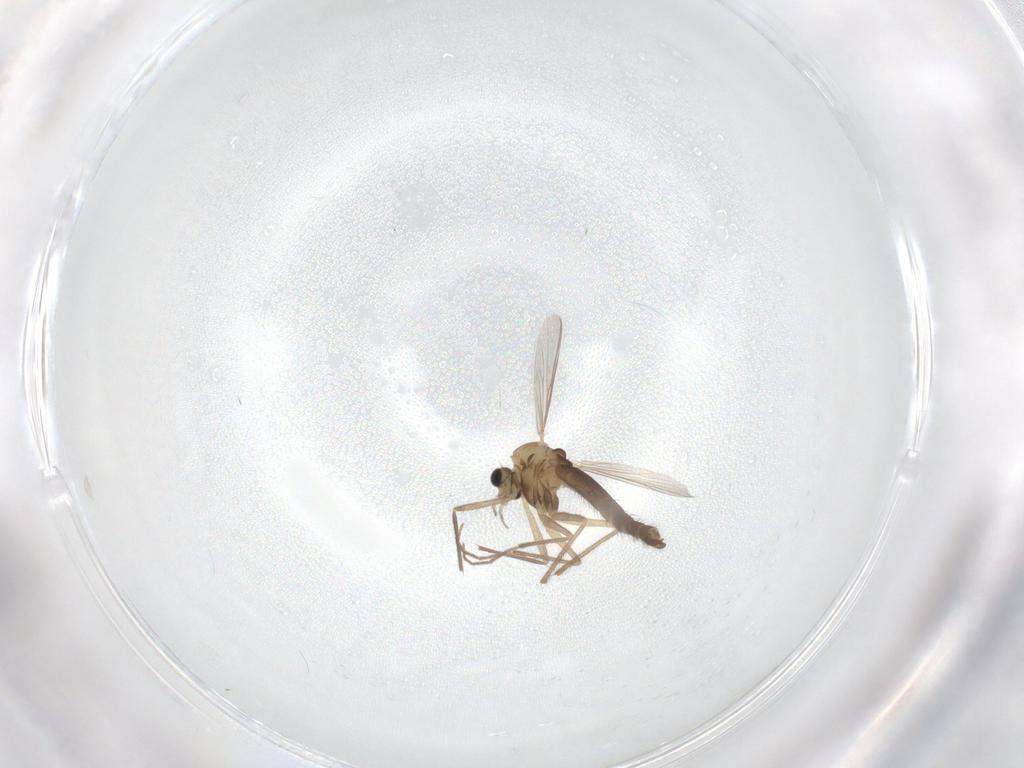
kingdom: Animalia
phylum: Arthropoda
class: Insecta
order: Diptera
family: Chironomidae
